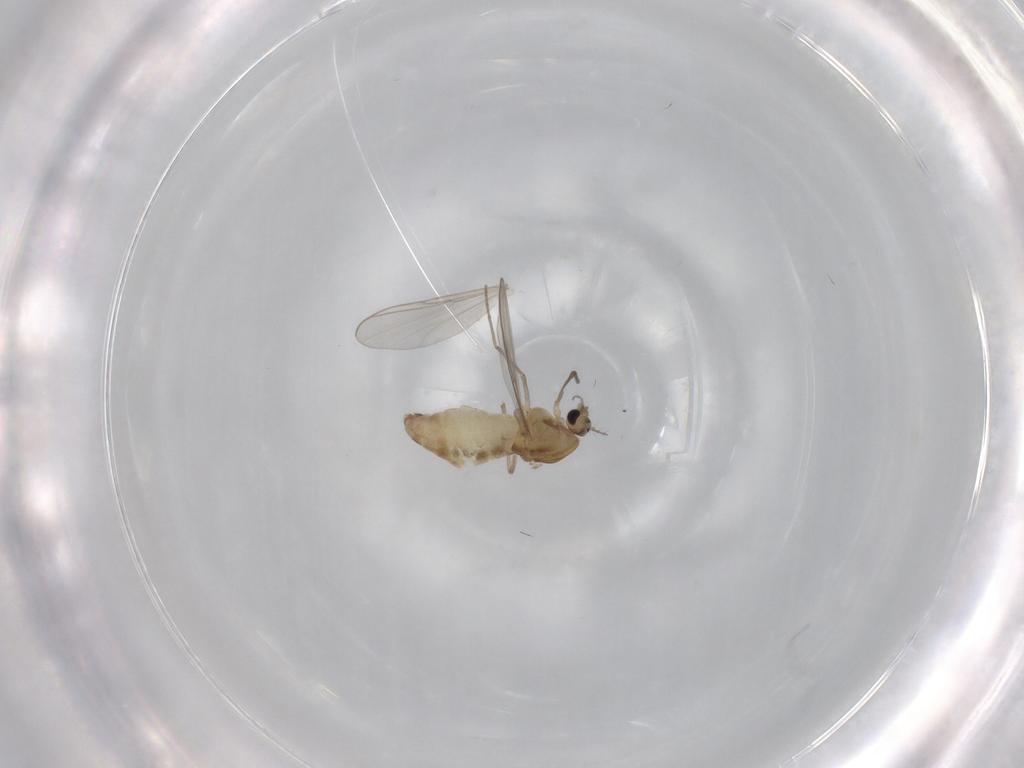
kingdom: Animalia
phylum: Arthropoda
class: Insecta
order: Diptera
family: Chironomidae
